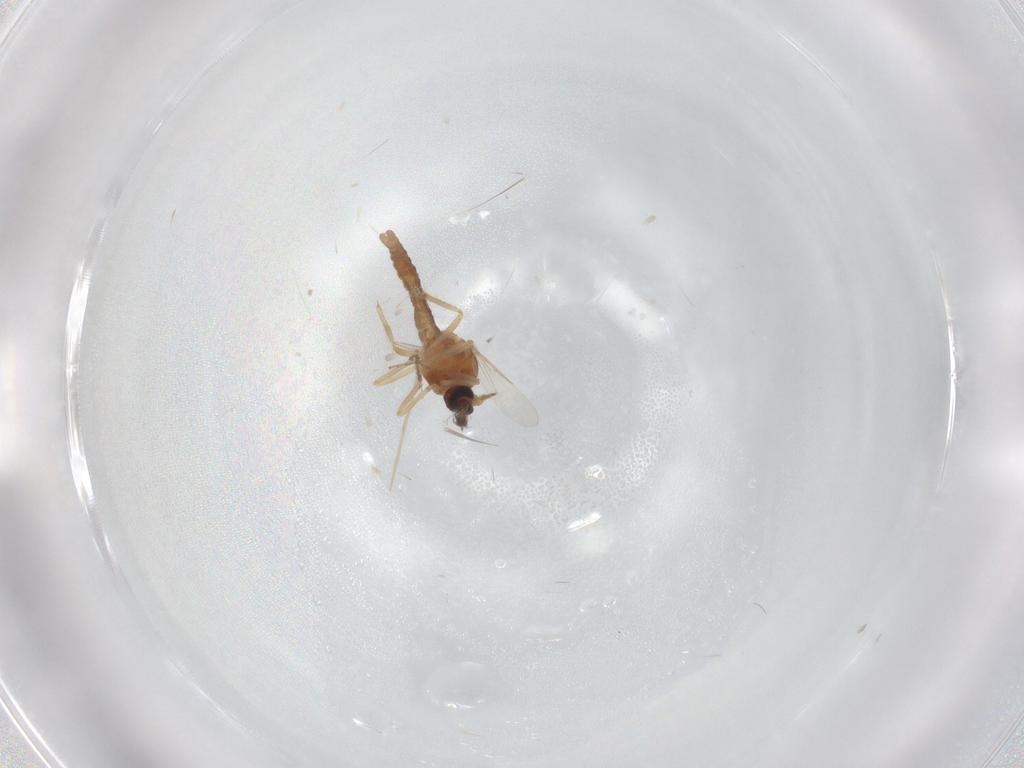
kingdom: Animalia
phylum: Arthropoda
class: Insecta
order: Diptera
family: Ceratopogonidae
